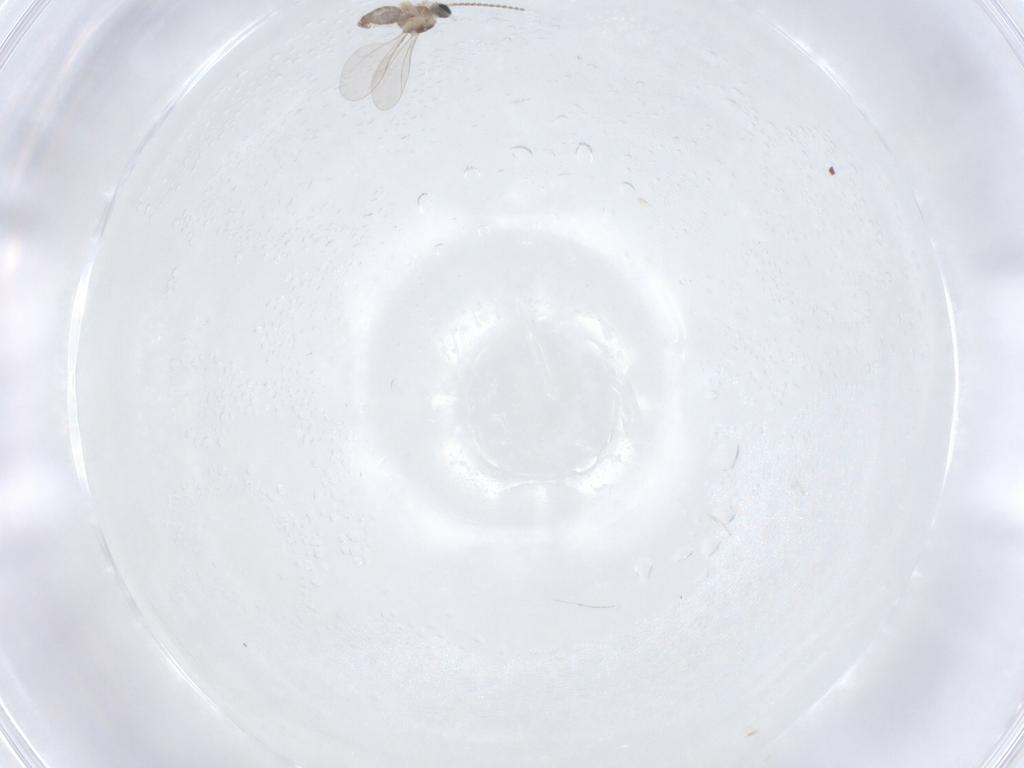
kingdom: Animalia
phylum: Arthropoda
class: Insecta
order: Diptera
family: Cecidomyiidae
